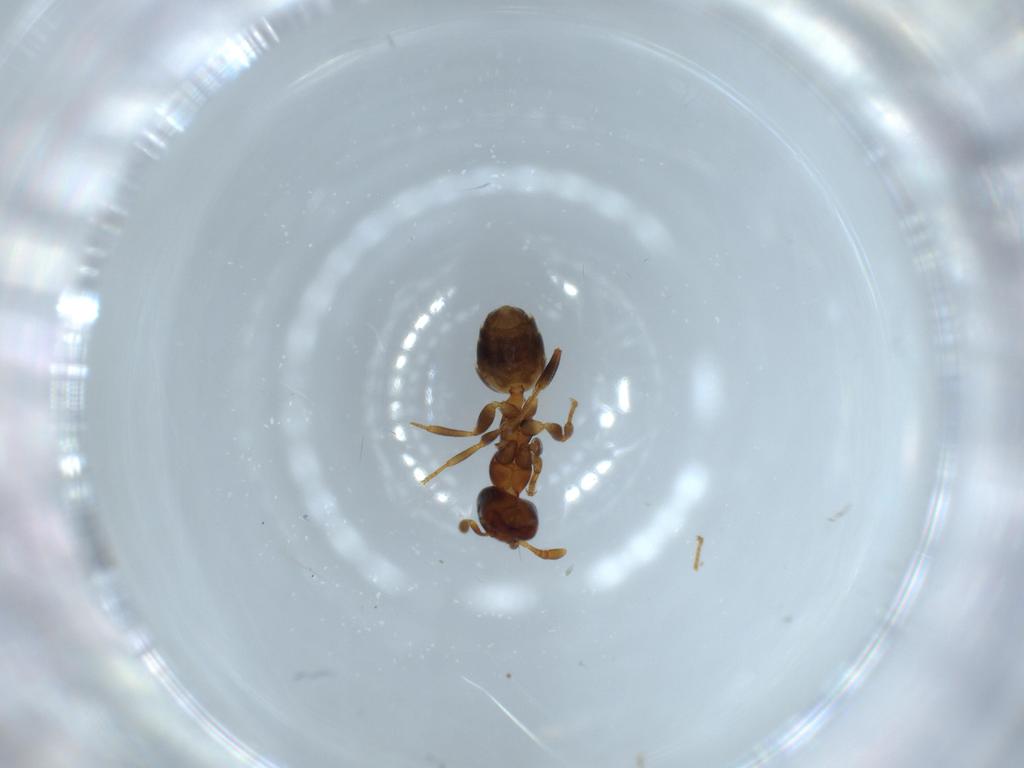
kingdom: Animalia
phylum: Arthropoda
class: Insecta
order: Hymenoptera
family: Formicidae
